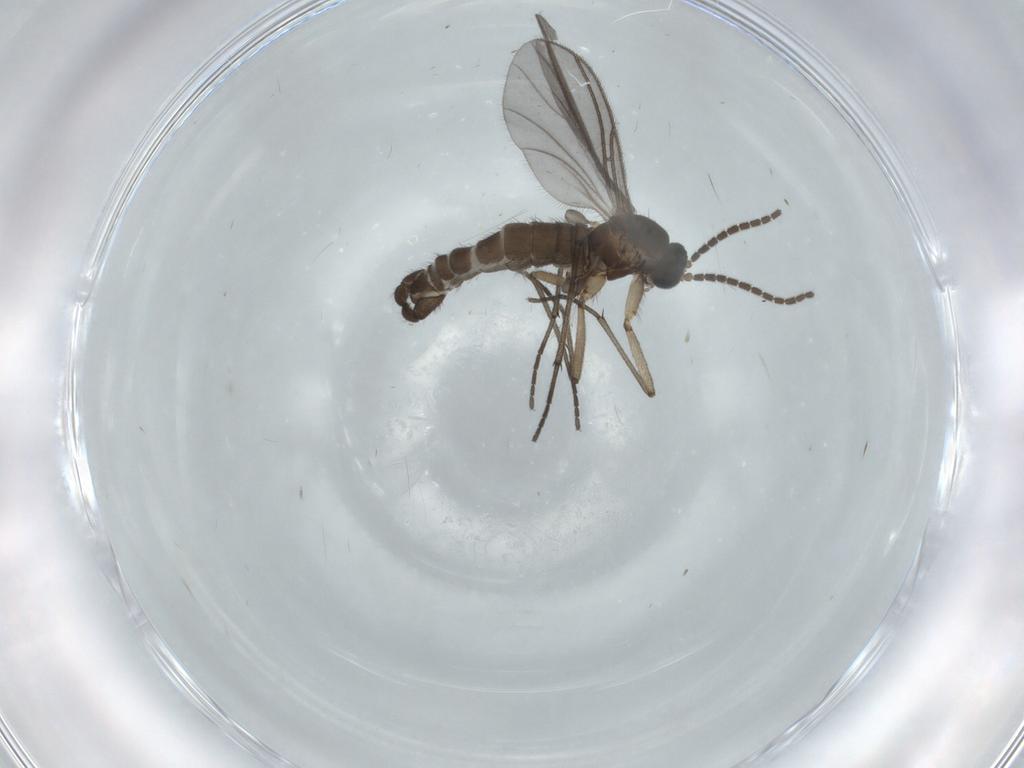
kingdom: Animalia
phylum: Arthropoda
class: Insecta
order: Diptera
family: Sciaridae
